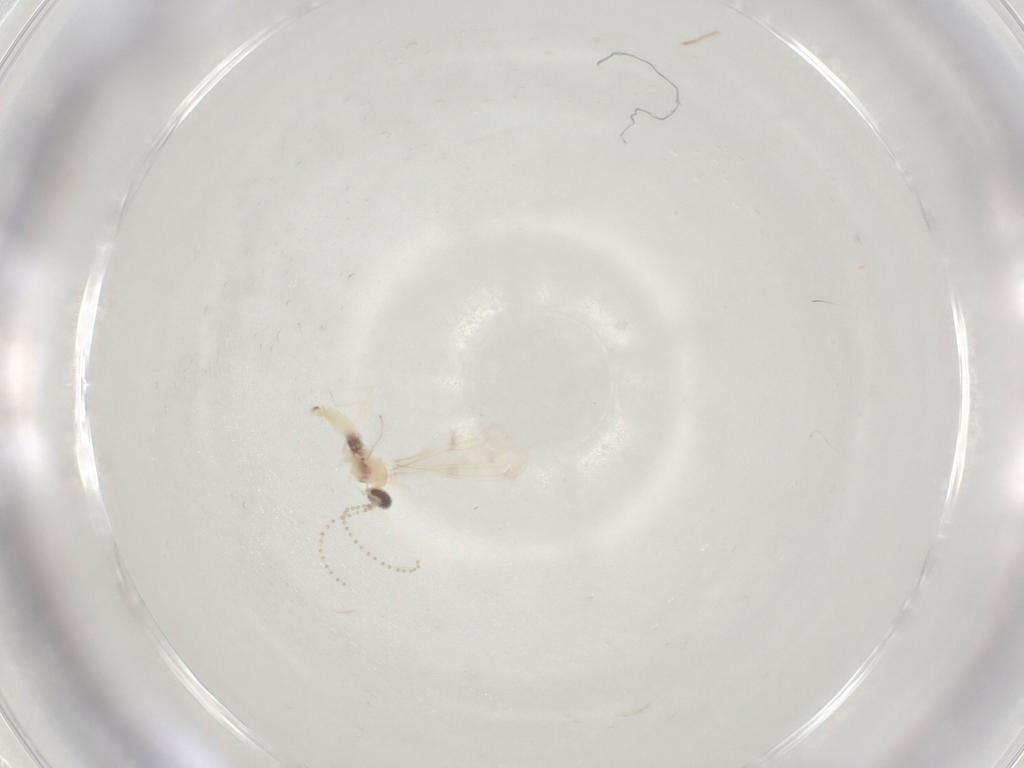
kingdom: Animalia
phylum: Arthropoda
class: Insecta
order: Diptera
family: Cecidomyiidae
